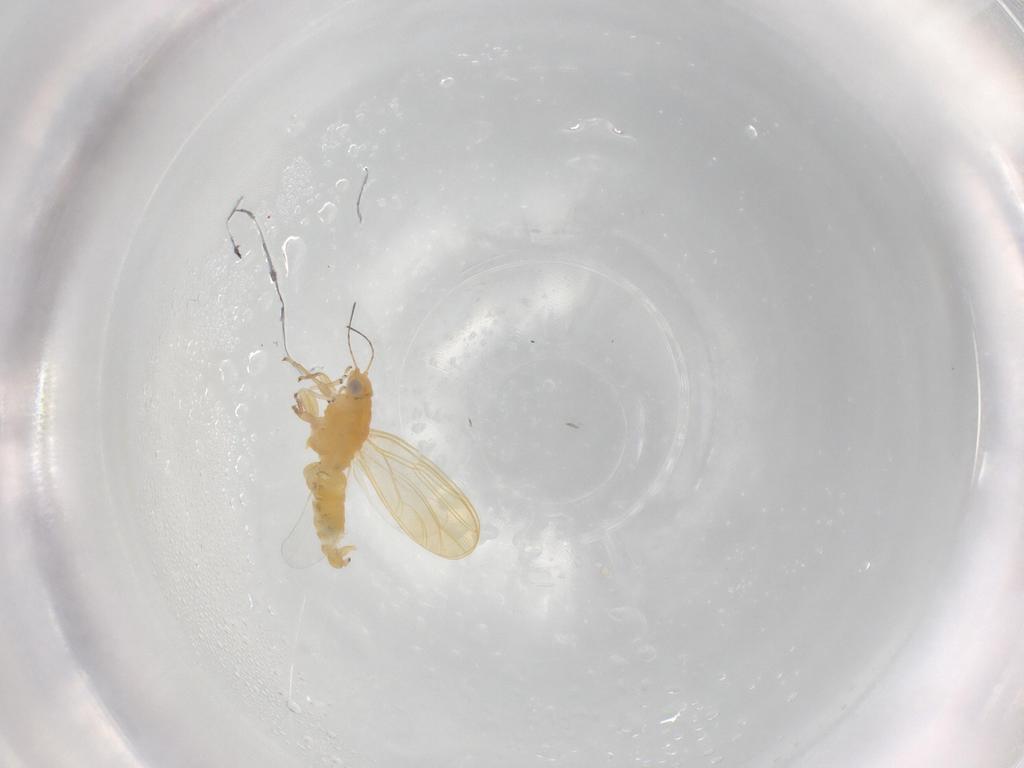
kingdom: Animalia
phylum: Arthropoda
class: Insecta
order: Hemiptera
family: Psyllidae
